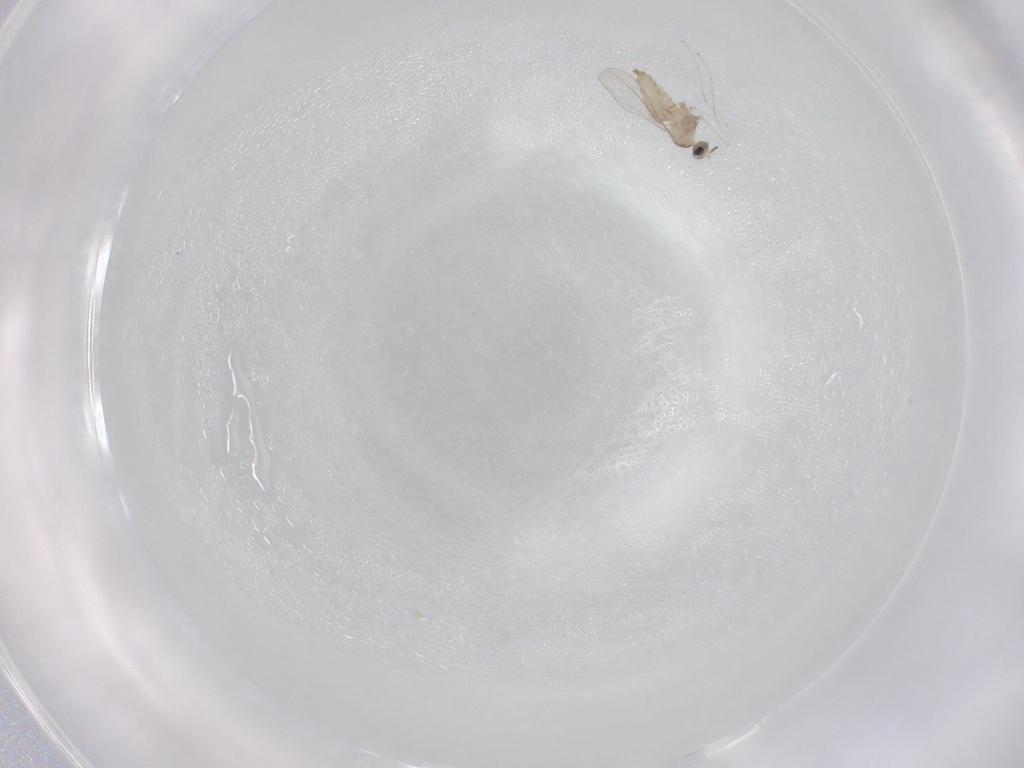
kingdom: Animalia
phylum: Arthropoda
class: Insecta
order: Diptera
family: Cecidomyiidae
